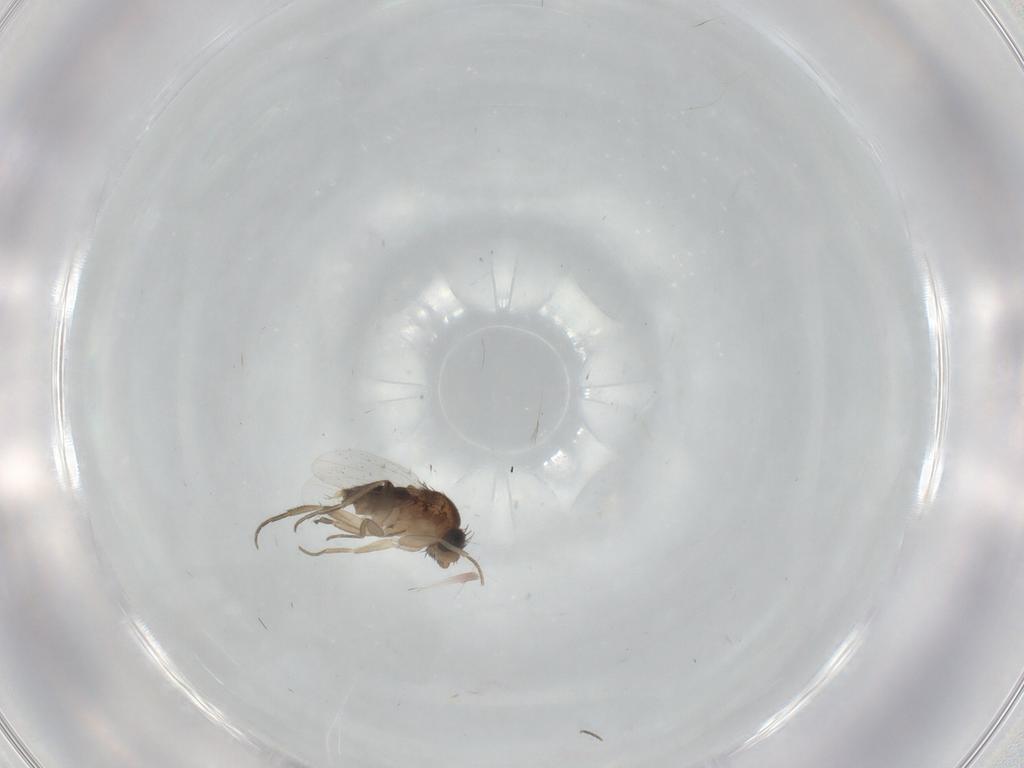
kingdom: Animalia
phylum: Arthropoda
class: Insecta
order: Diptera
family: Phoridae
